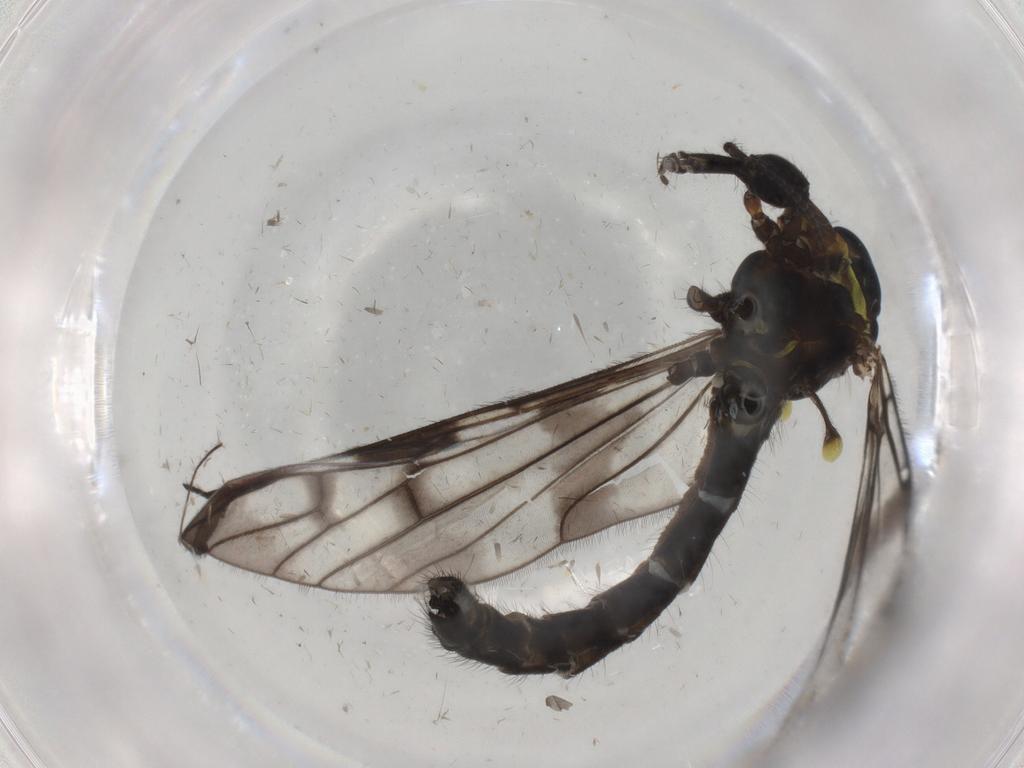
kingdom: Animalia
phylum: Arthropoda
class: Insecta
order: Diptera
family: Limoniidae
